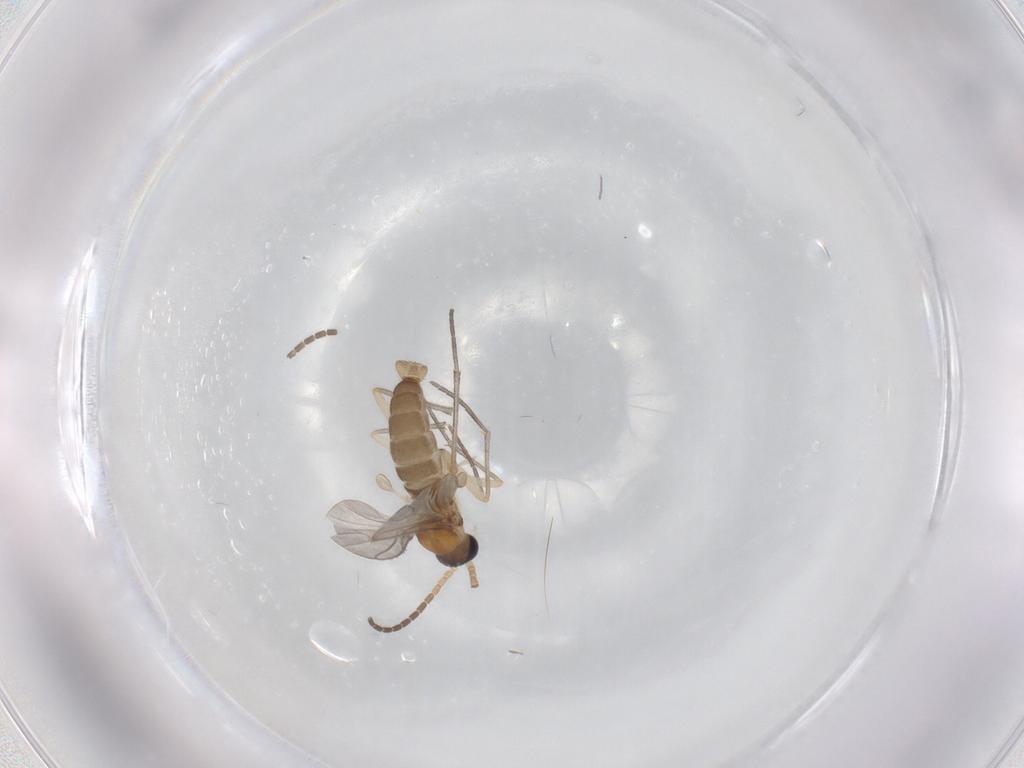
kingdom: Animalia
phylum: Arthropoda
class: Insecta
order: Diptera
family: Sciaridae
